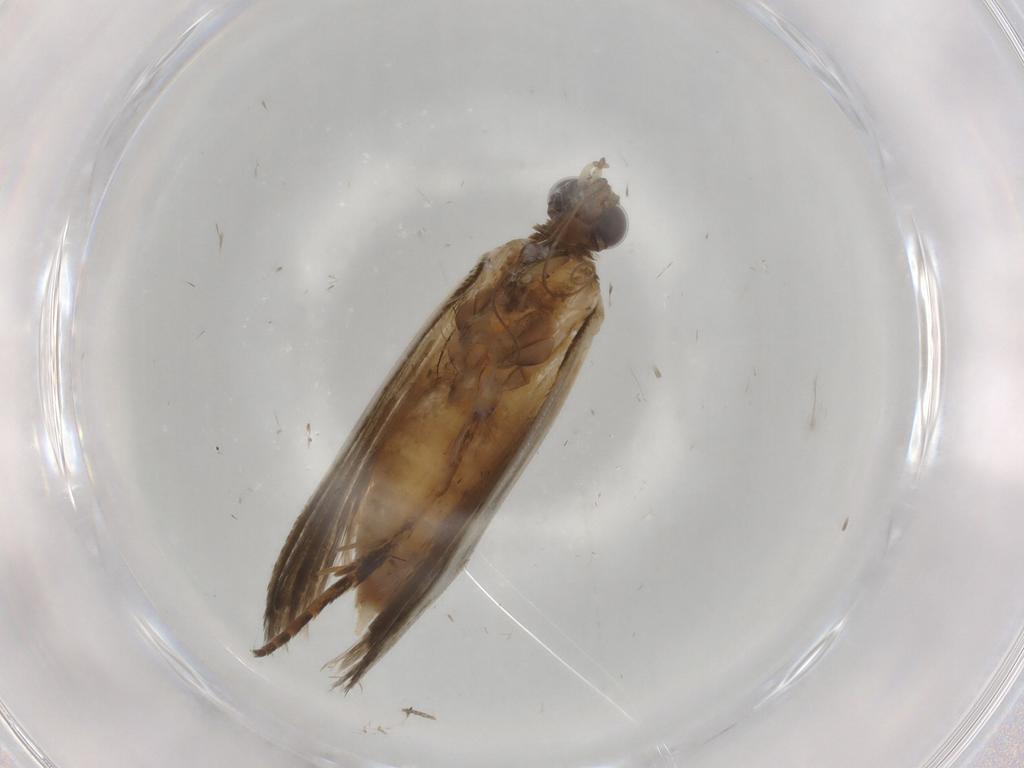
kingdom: Animalia
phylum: Arthropoda
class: Insecta
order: Lepidoptera
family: Noctuidae
